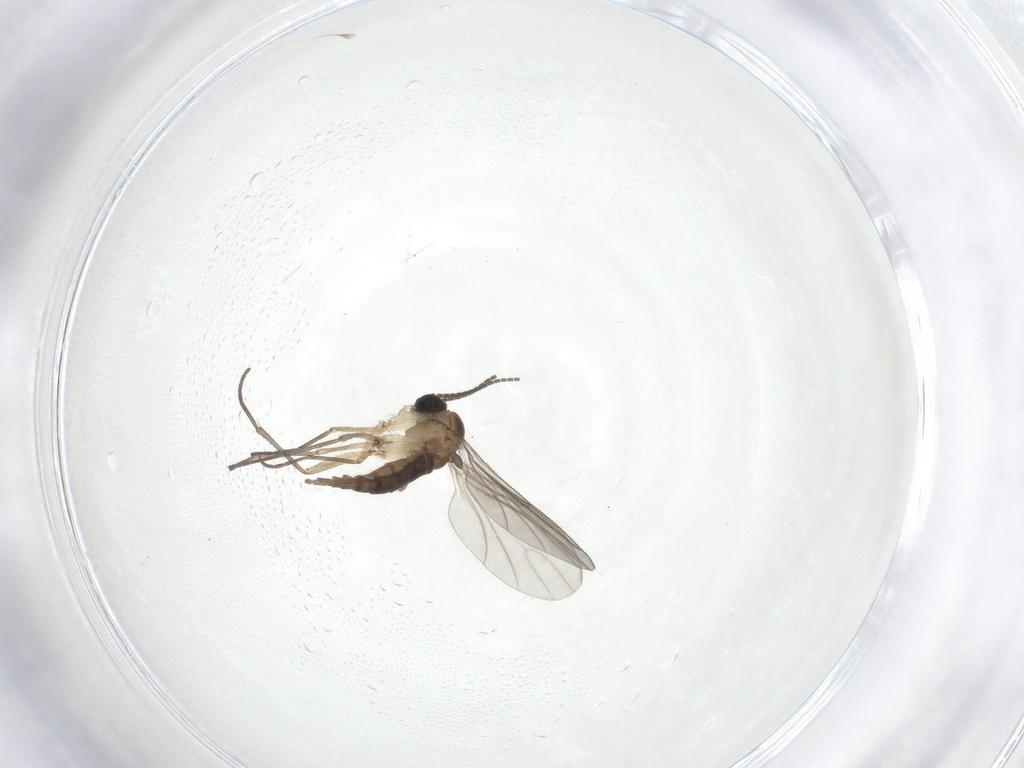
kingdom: Animalia
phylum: Arthropoda
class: Insecta
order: Diptera
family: Sciaridae
